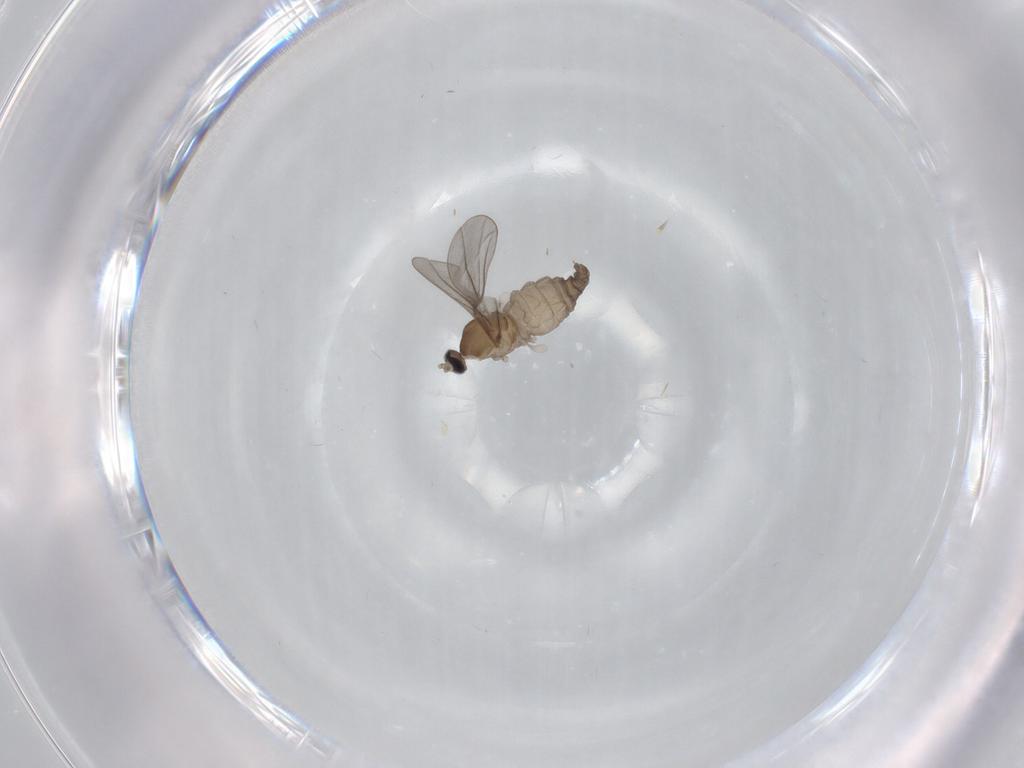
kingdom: Animalia
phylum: Arthropoda
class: Insecta
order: Diptera
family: Cecidomyiidae
